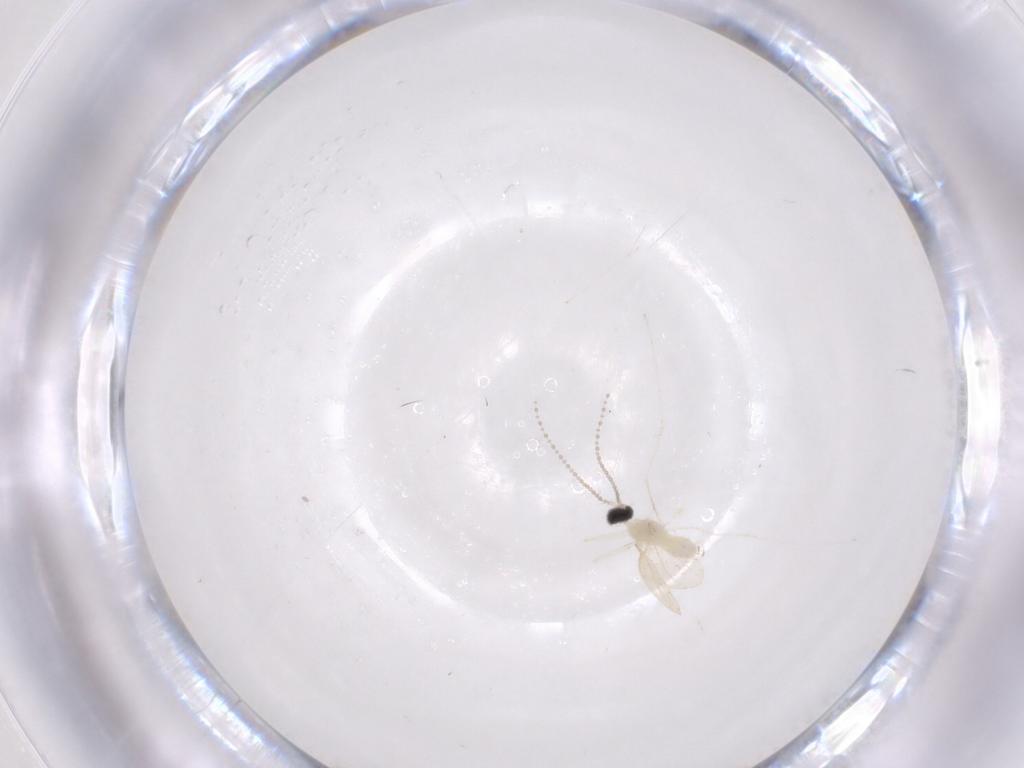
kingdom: Animalia
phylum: Arthropoda
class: Insecta
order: Diptera
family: Cecidomyiidae
